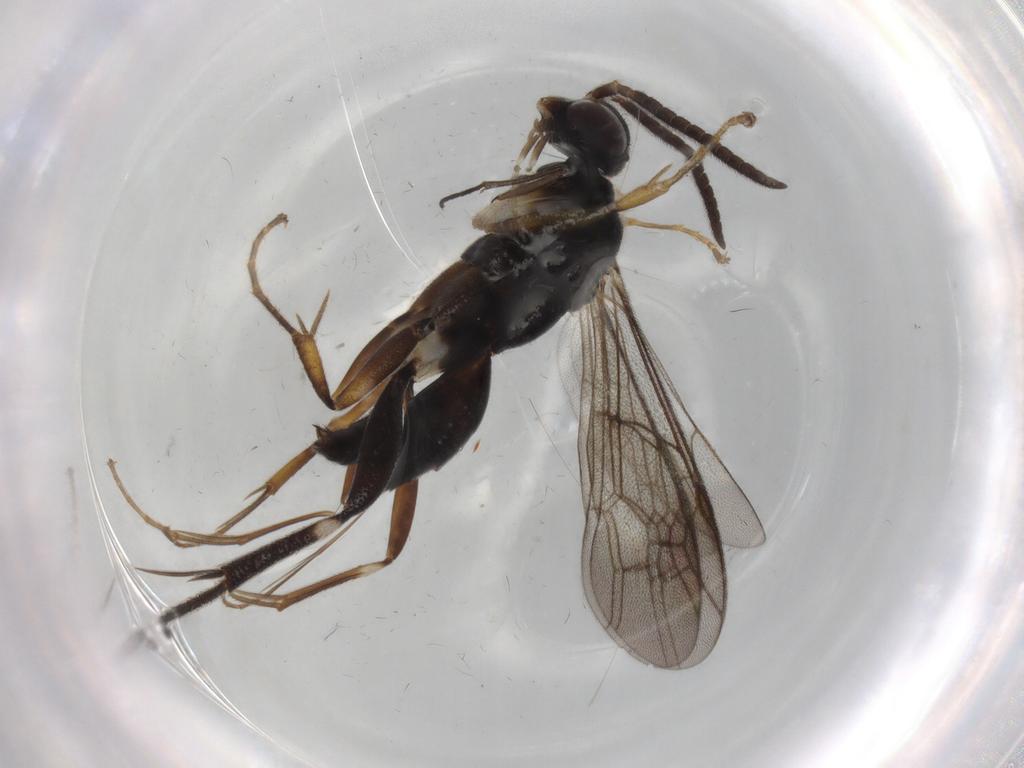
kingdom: Animalia
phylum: Arthropoda
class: Insecta
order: Hymenoptera
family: Pompilidae
